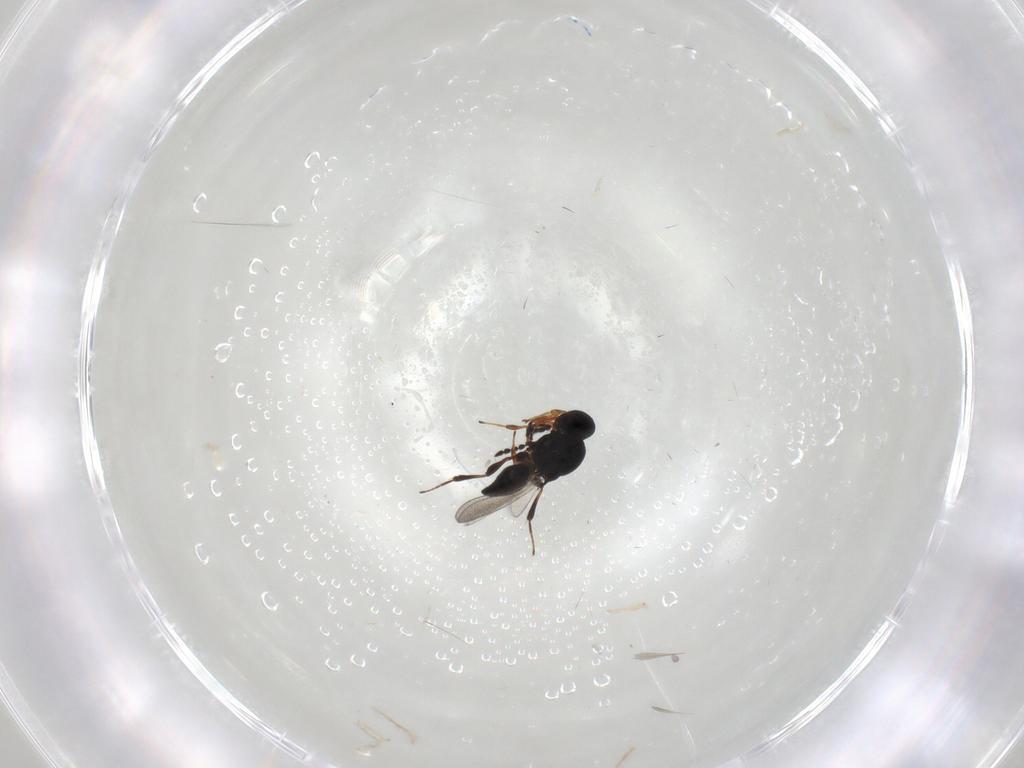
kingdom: Animalia
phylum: Arthropoda
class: Insecta
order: Hymenoptera
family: Platygastridae
